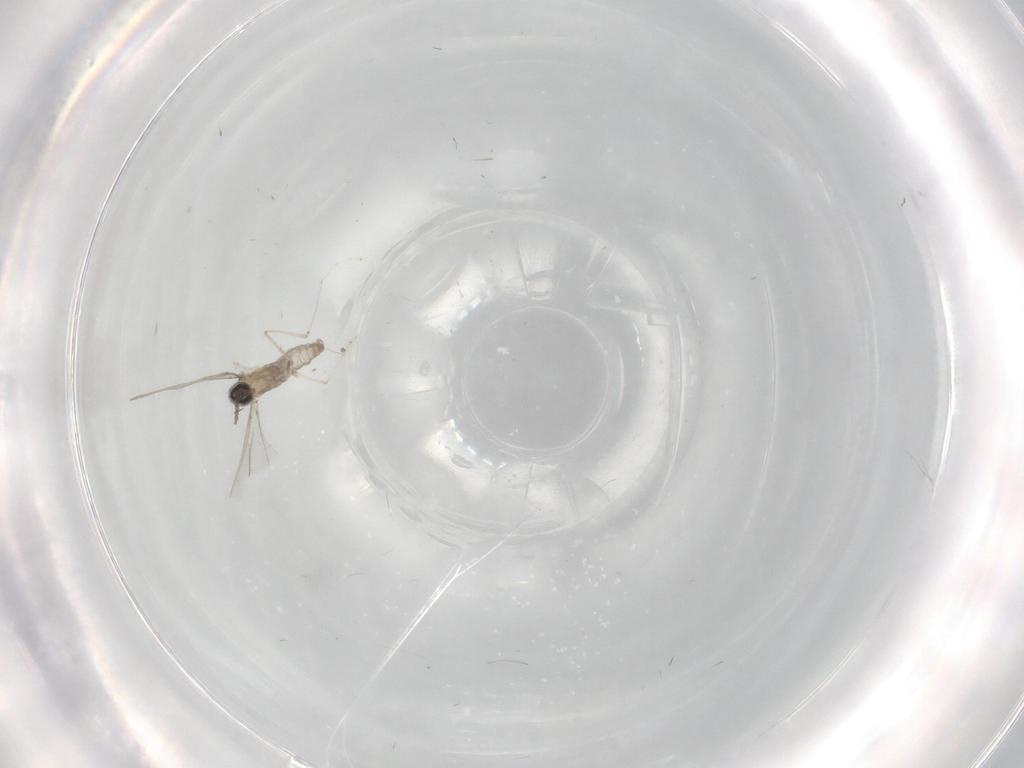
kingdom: Animalia
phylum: Arthropoda
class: Insecta
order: Diptera
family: Cecidomyiidae
